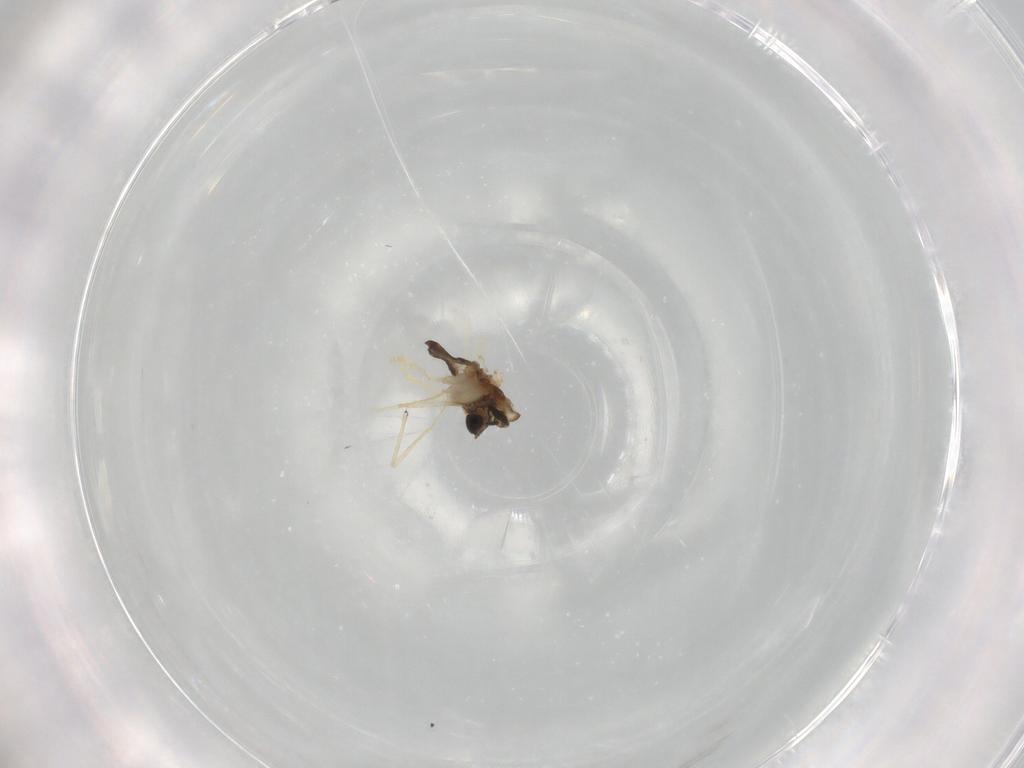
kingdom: Animalia
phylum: Arthropoda
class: Insecta
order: Diptera
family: Chironomidae
